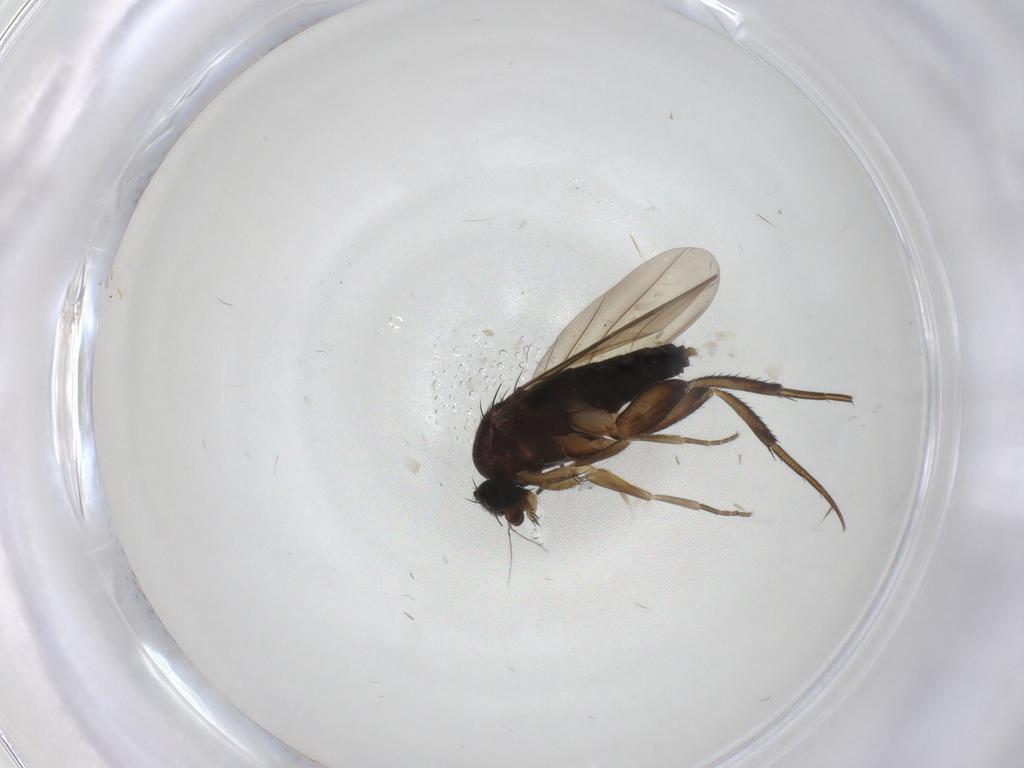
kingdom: Animalia
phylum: Arthropoda
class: Insecta
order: Diptera
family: Phoridae
